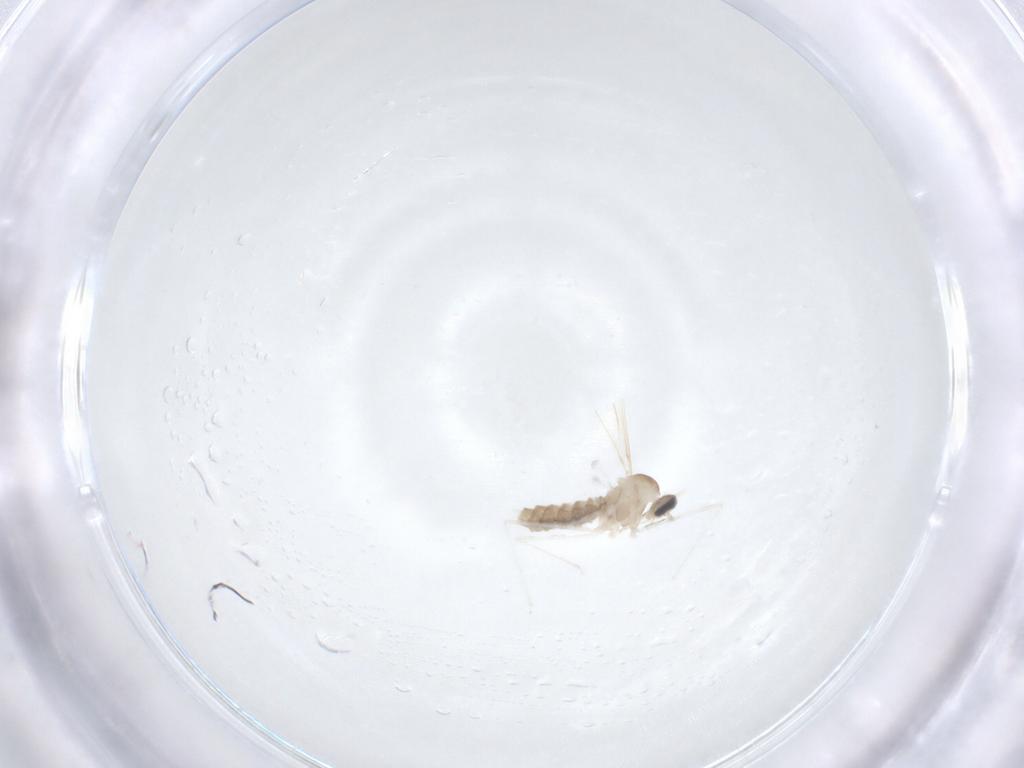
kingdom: Animalia
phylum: Arthropoda
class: Insecta
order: Diptera
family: Cecidomyiidae
